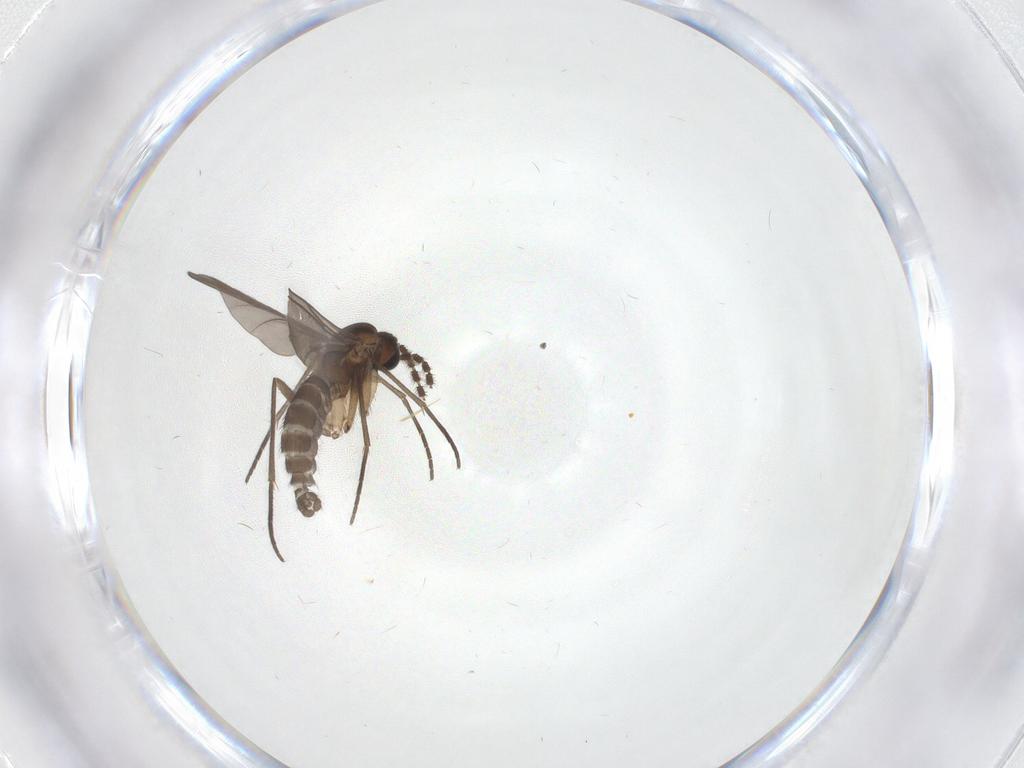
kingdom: Animalia
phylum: Arthropoda
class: Insecta
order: Diptera
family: Sciaridae
